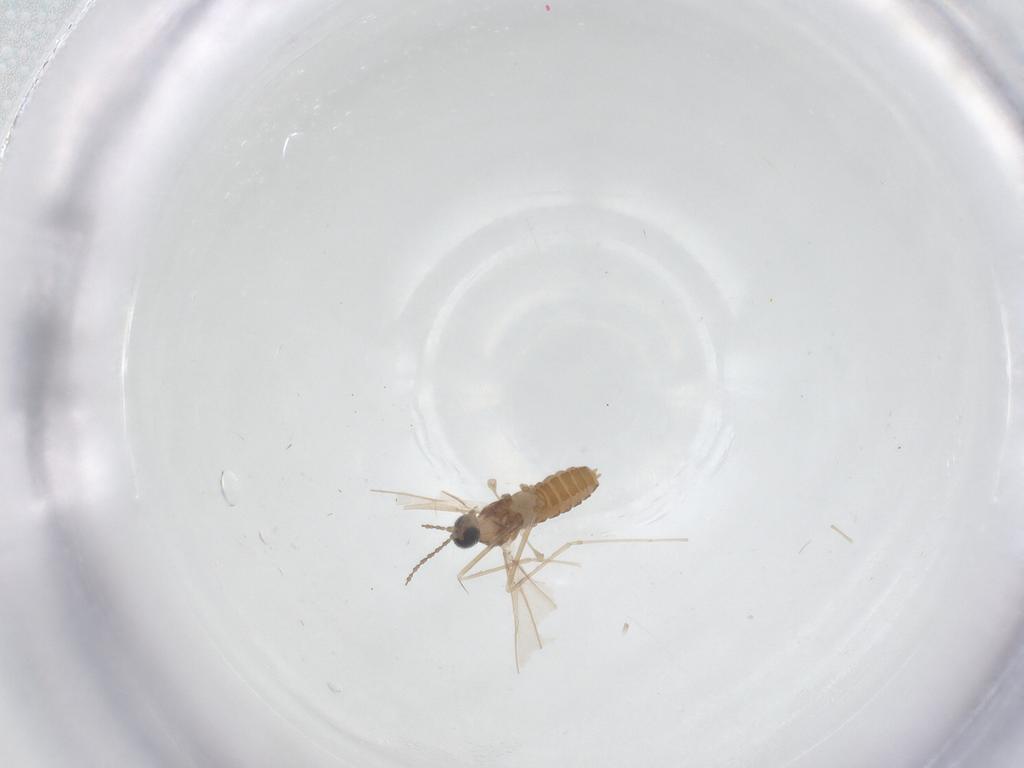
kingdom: Animalia
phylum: Arthropoda
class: Insecta
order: Diptera
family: Cecidomyiidae
